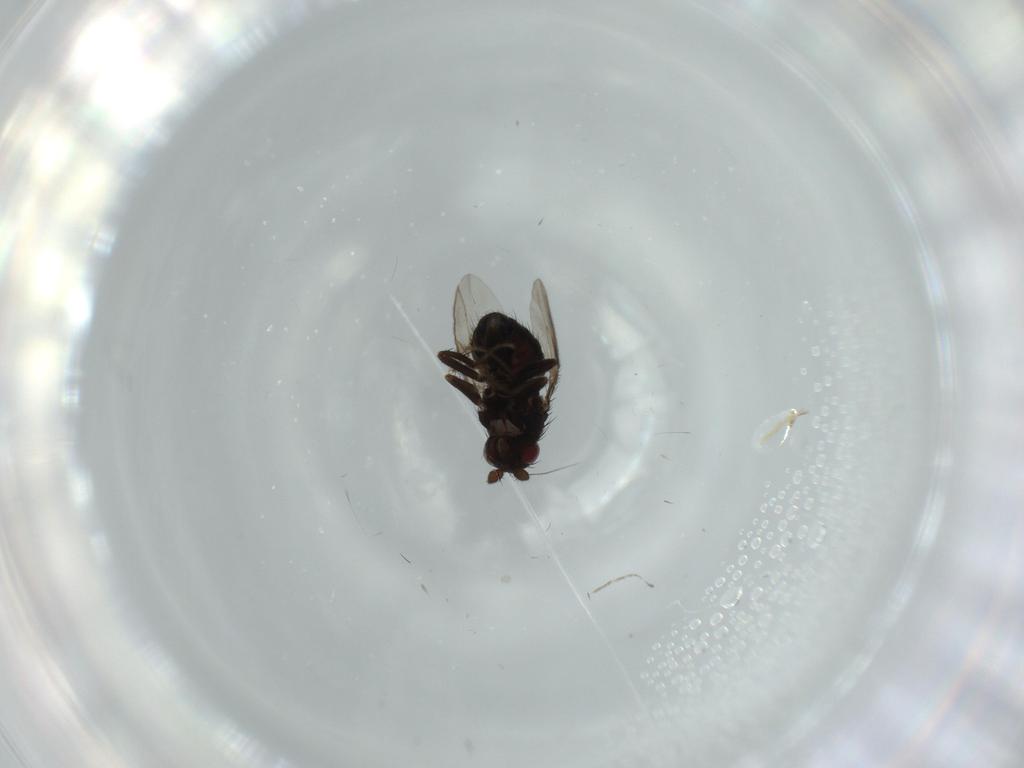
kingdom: Animalia
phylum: Arthropoda
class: Insecta
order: Diptera
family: Sphaeroceridae
